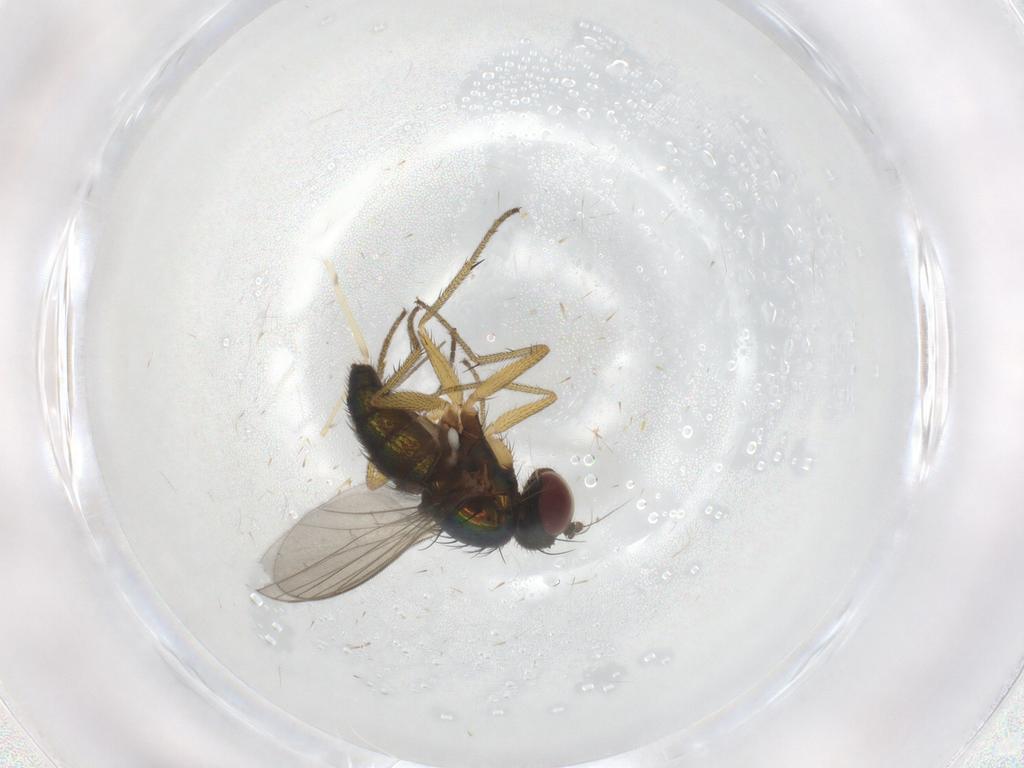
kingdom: Animalia
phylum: Arthropoda
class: Insecta
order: Diptera
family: Chironomidae
